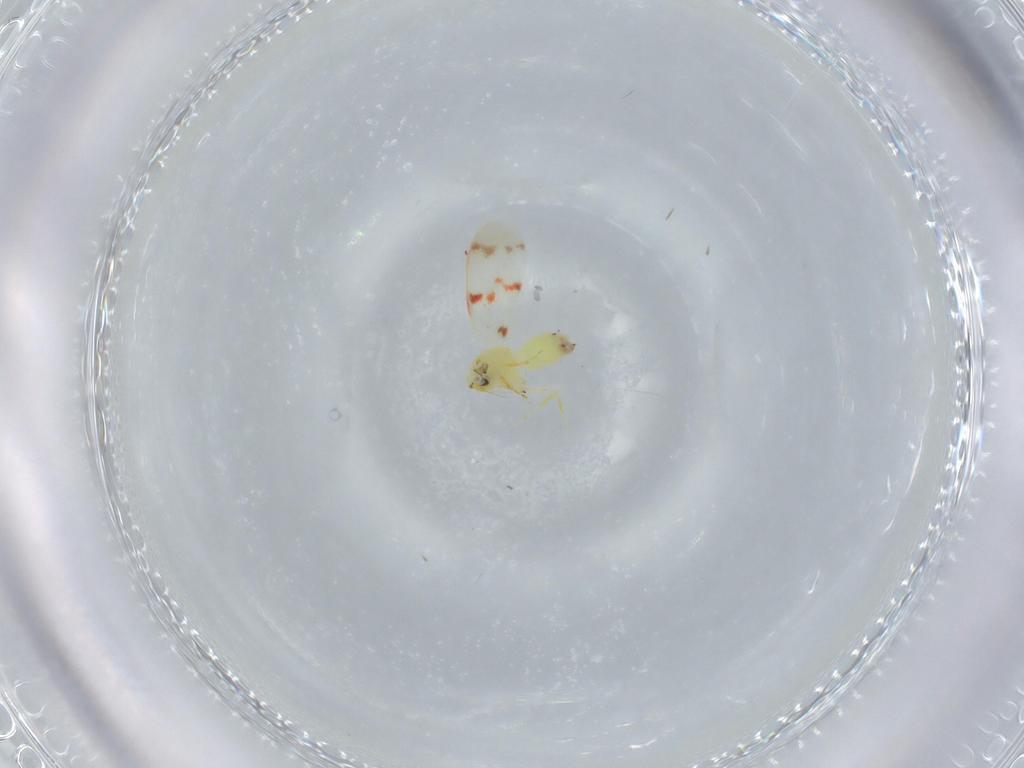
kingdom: Animalia
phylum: Arthropoda
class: Insecta
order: Hemiptera
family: Aleyrodidae
